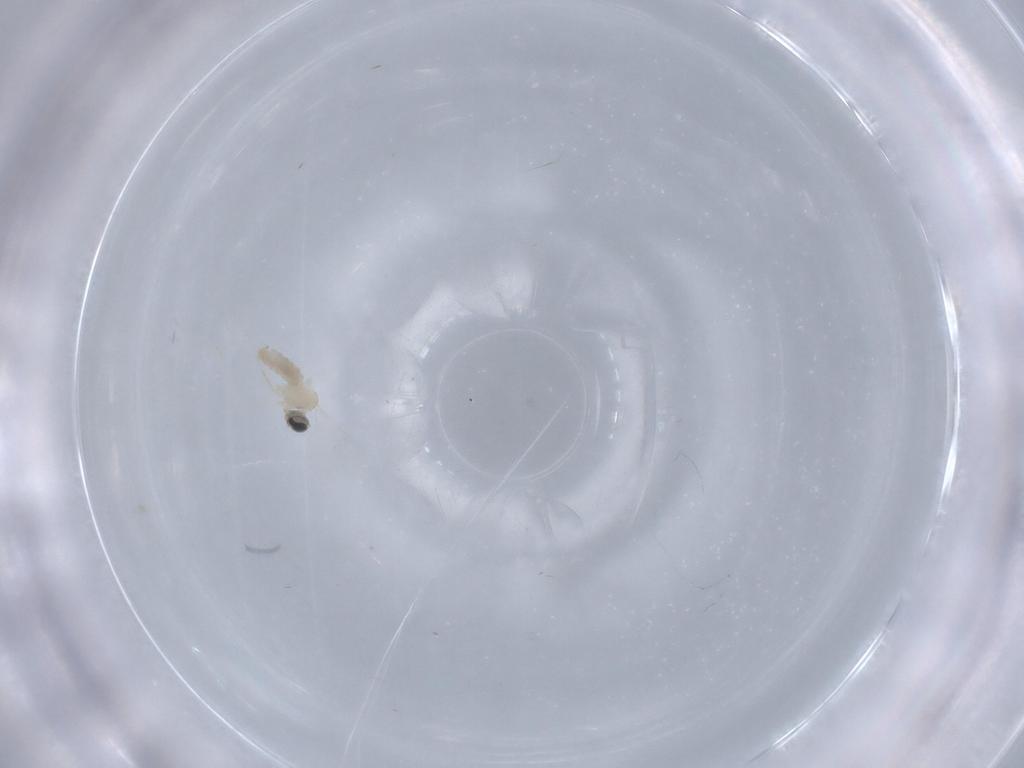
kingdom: Animalia
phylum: Arthropoda
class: Insecta
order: Diptera
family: Cecidomyiidae
